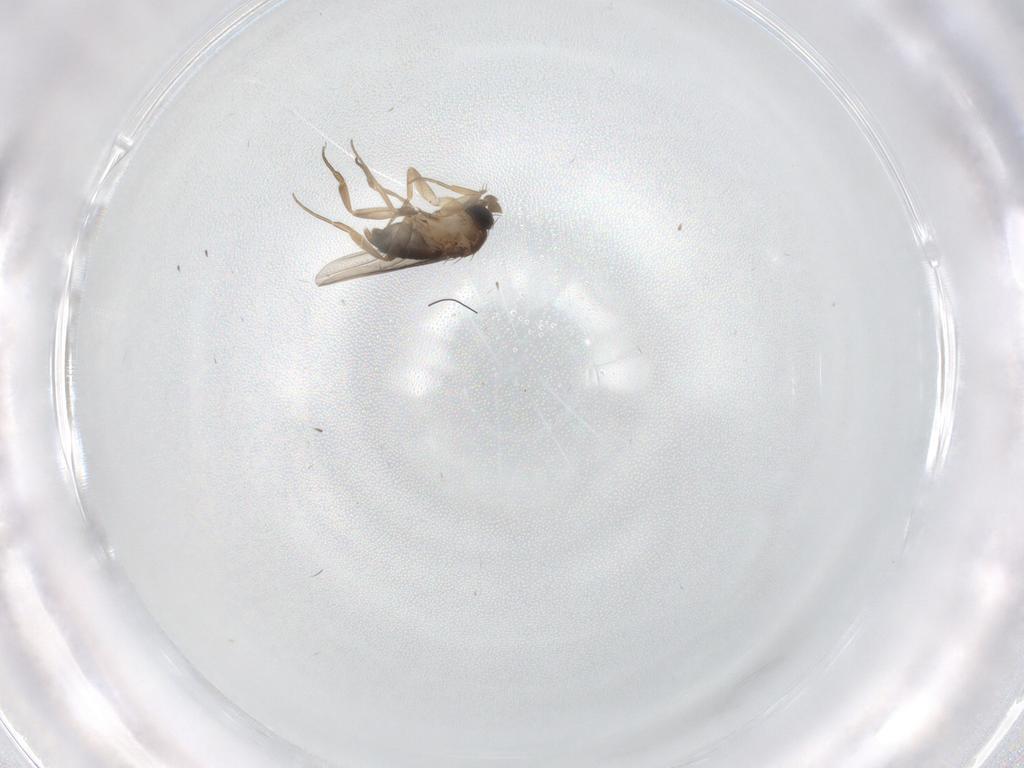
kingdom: Animalia
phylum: Arthropoda
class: Insecta
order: Diptera
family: Phoridae
